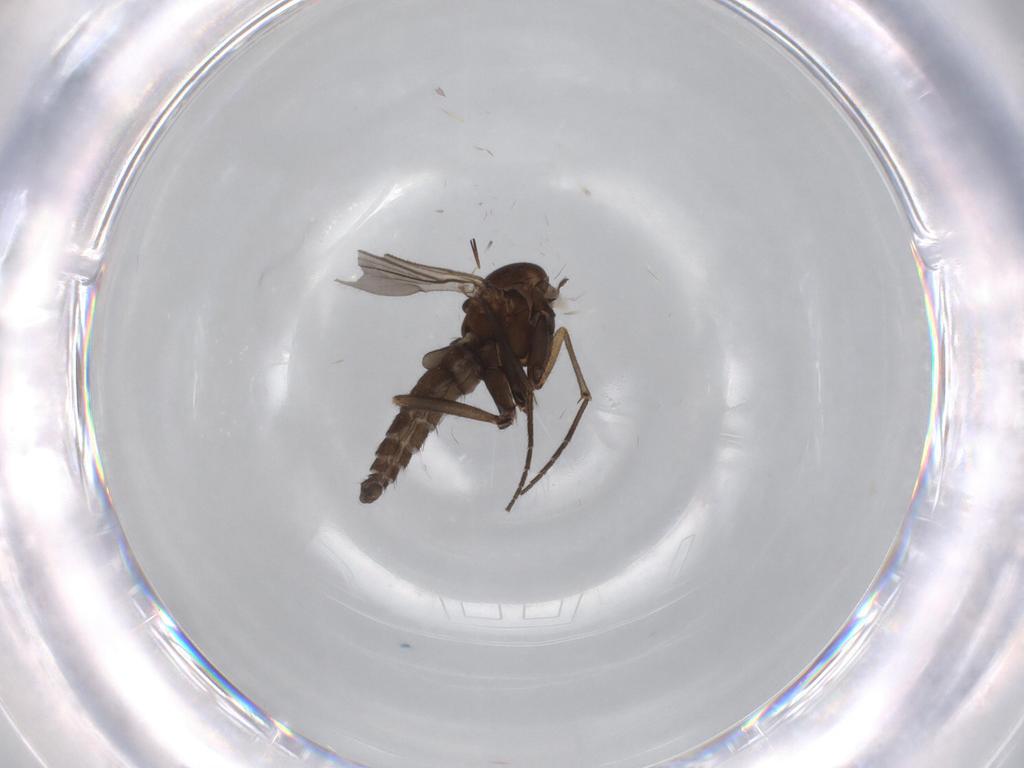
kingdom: Animalia
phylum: Arthropoda
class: Insecta
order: Diptera
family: Sciaridae
